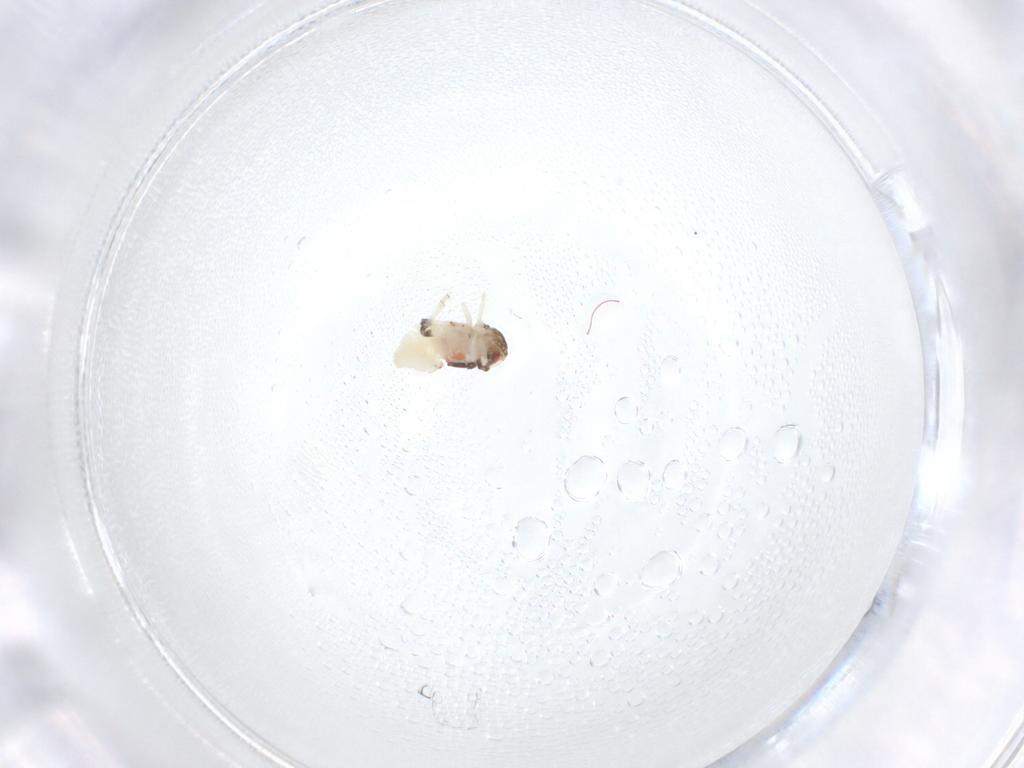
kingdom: Animalia
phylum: Arthropoda
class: Insecta
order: Hemiptera
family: Nogodinidae
